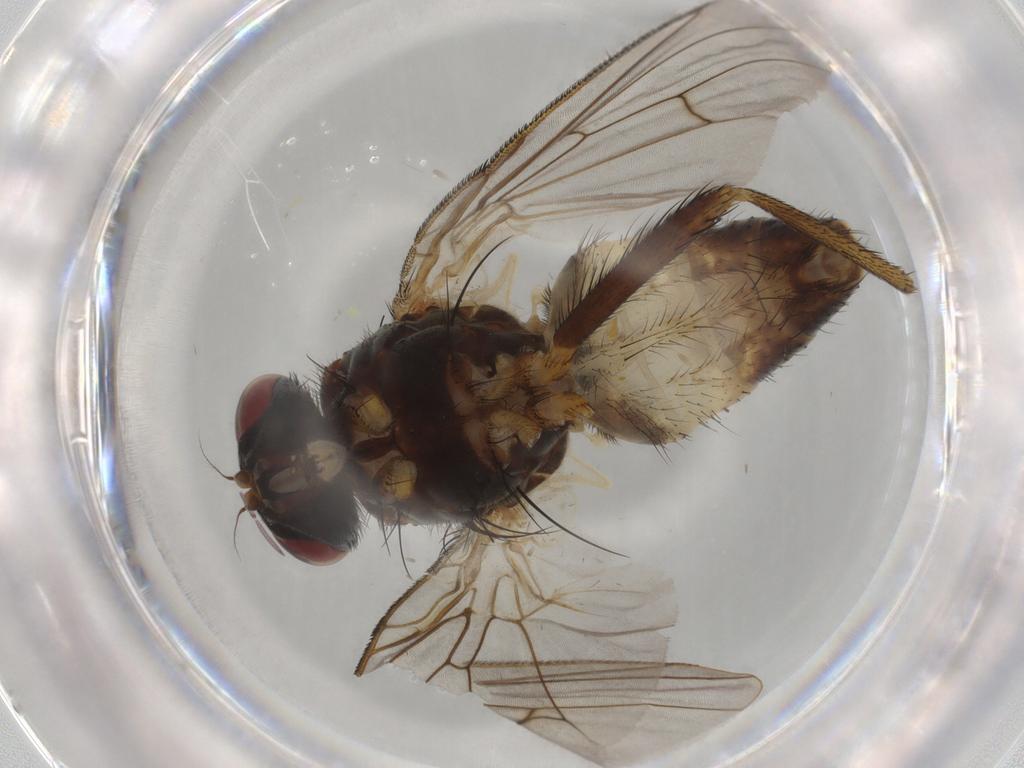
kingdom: Animalia
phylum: Arthropoda
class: Insecta
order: Diptera
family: Muscidae
